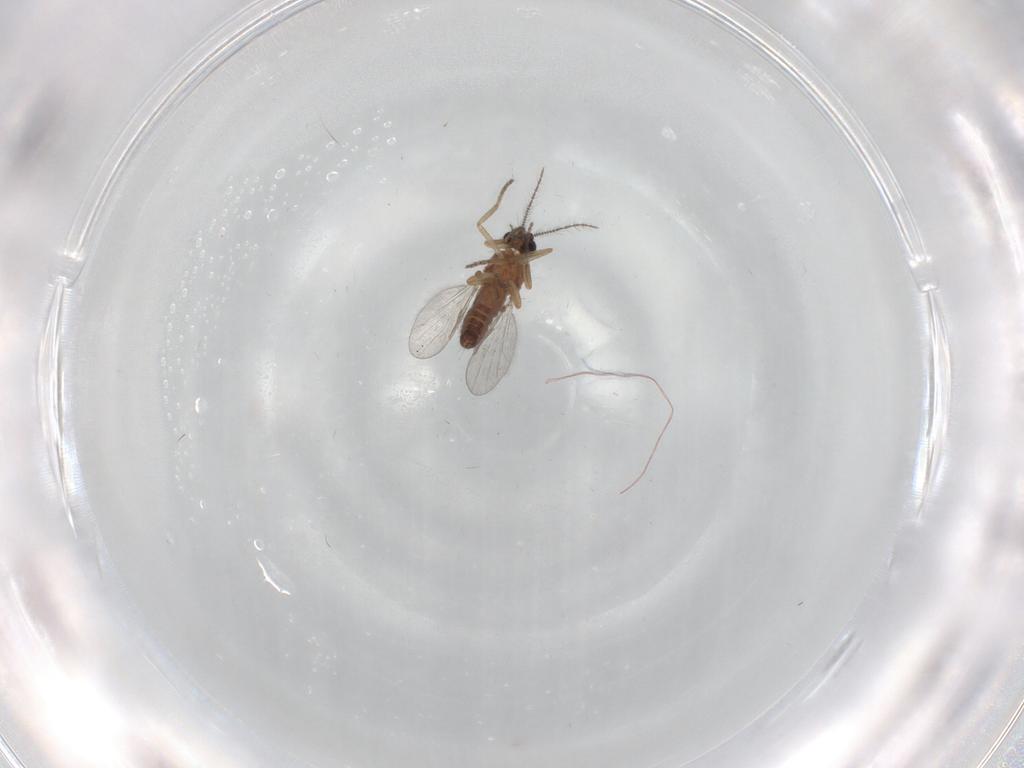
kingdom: Animalia
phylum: Arthropoda
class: Insecta
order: Diptera
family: Ceratopogonidae
